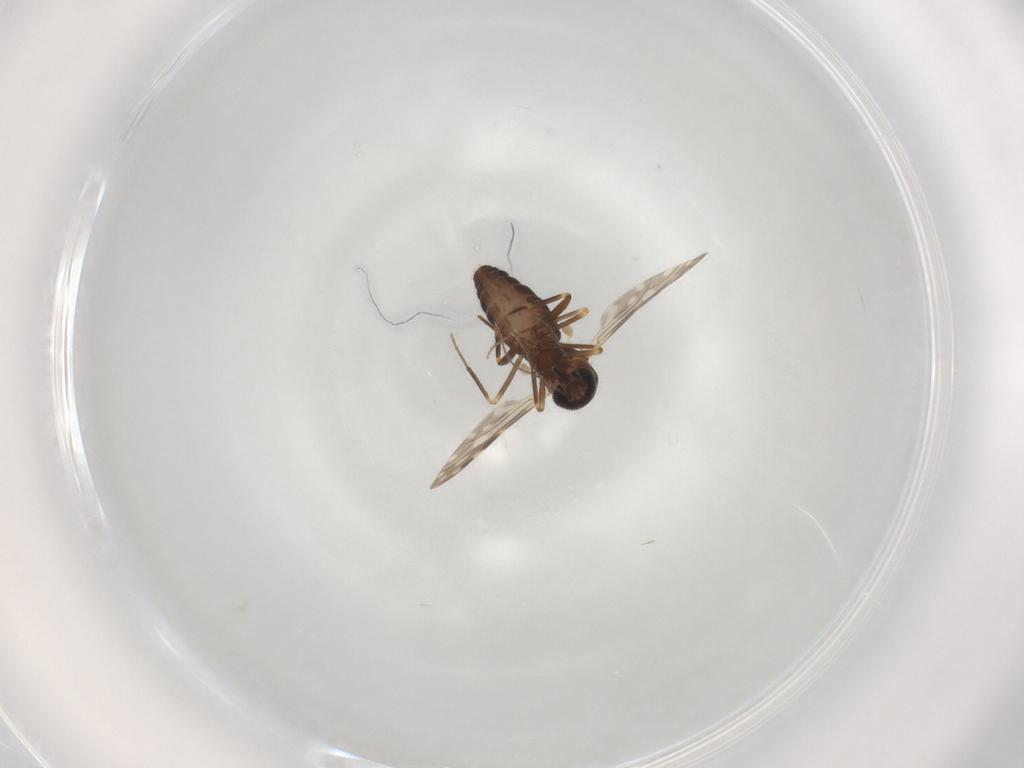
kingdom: Animalia
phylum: Arthropoda
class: Insecta
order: Diptera
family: Ceratopogonidae
